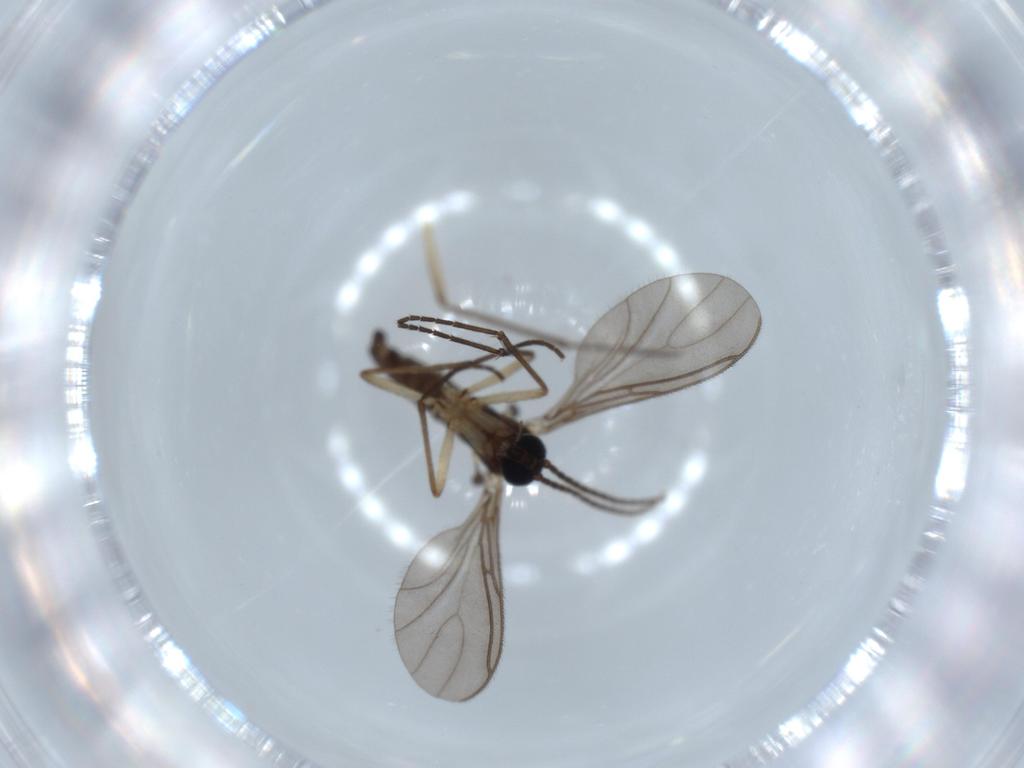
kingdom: Animalia
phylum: Arthropoda
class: Insecta
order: Diptera
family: Sciaridae
